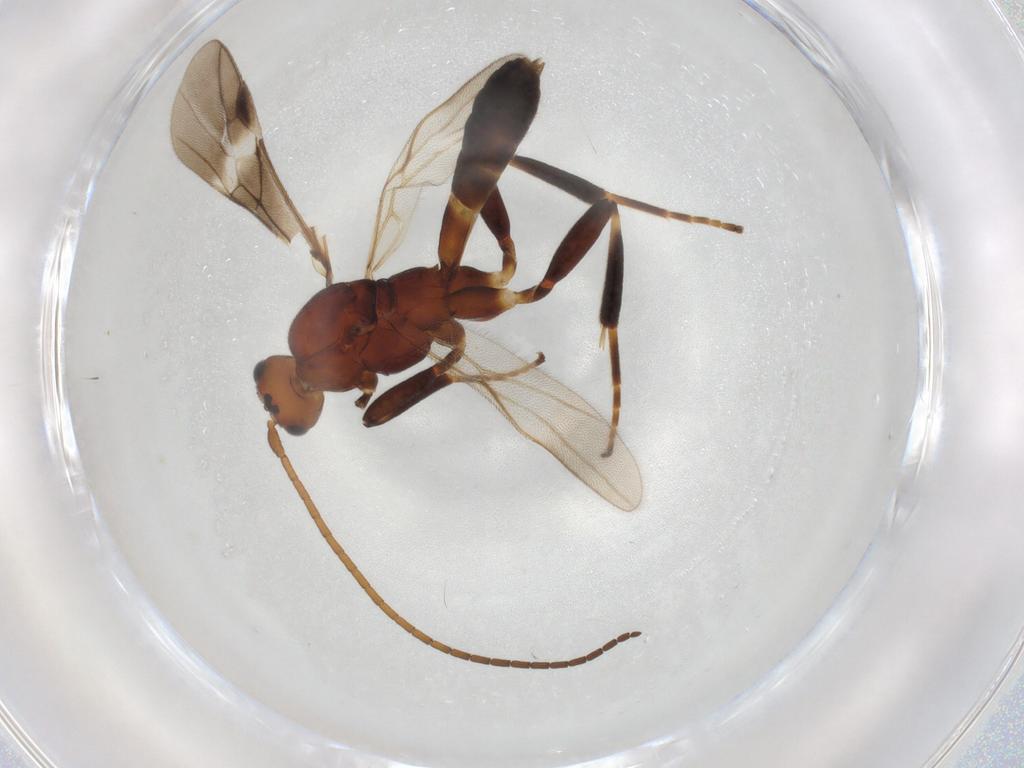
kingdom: Animalia
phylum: Arthropoda
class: Insecta
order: Hymenoptera
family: Braconidae
